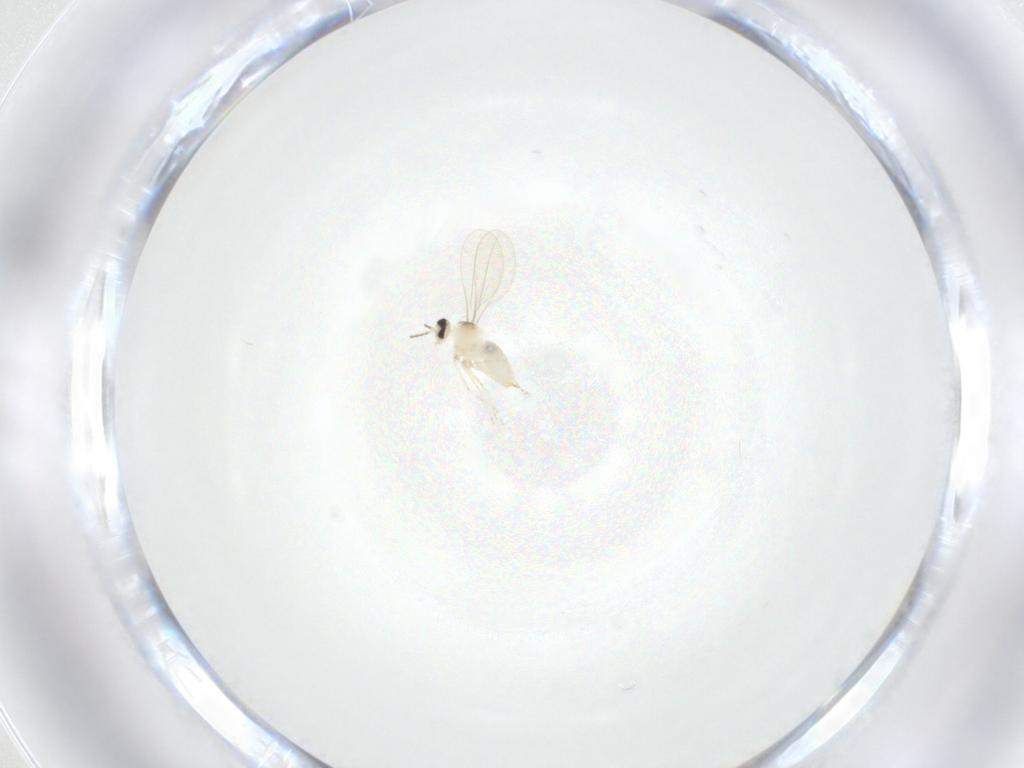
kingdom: Animalia
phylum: Arthropoda
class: Insecta
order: Diptera
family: Cecidomyiidae
